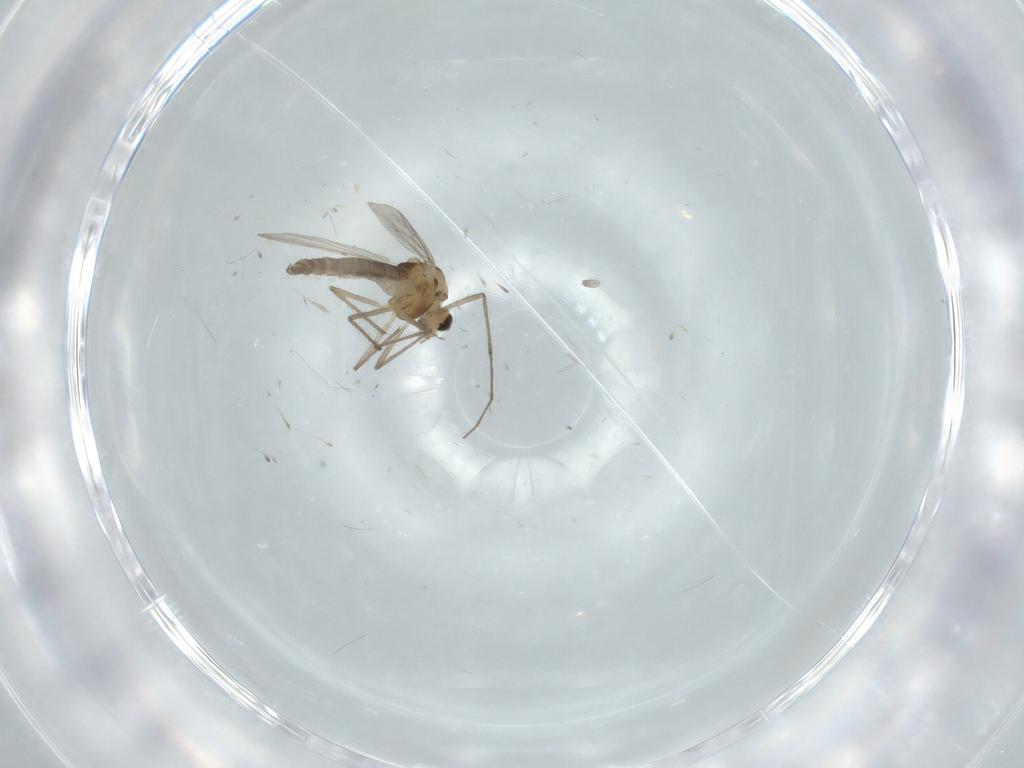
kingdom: Animalia
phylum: Arthropoda
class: Insecta
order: Diptera
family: Chironomidae
